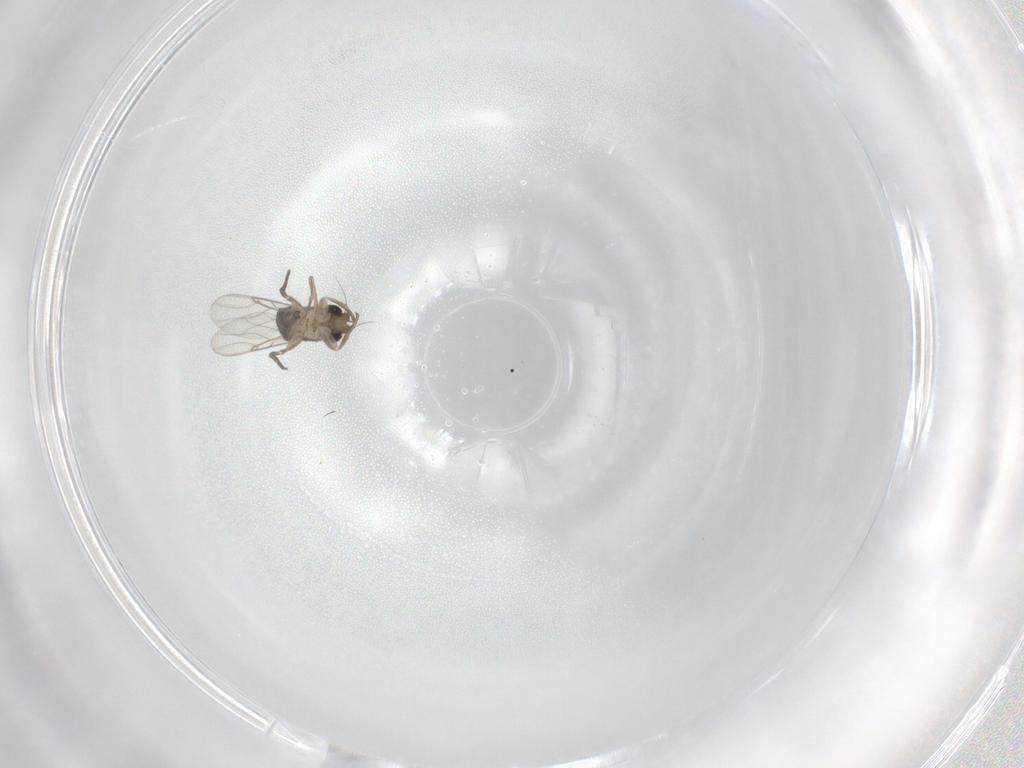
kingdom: Animalia
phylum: Arthropoda
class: Insecta
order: Diptera
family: Phoridae
